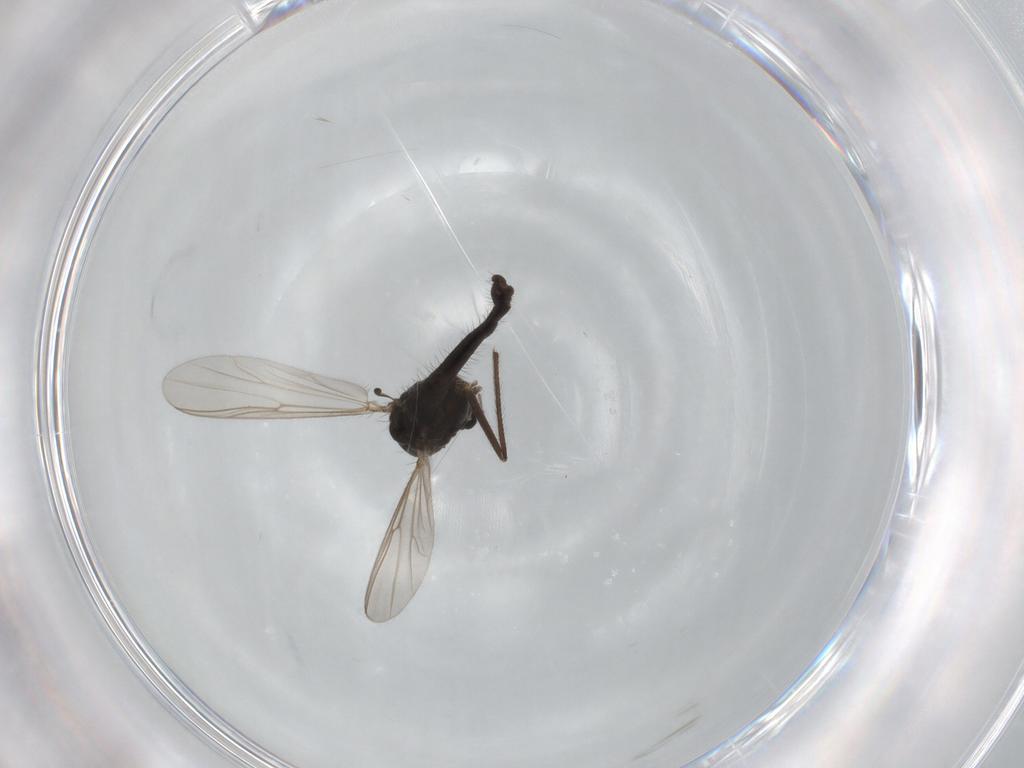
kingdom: Animalia
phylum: Arthropoda
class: Insecta
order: Diptera
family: Chironomidae
